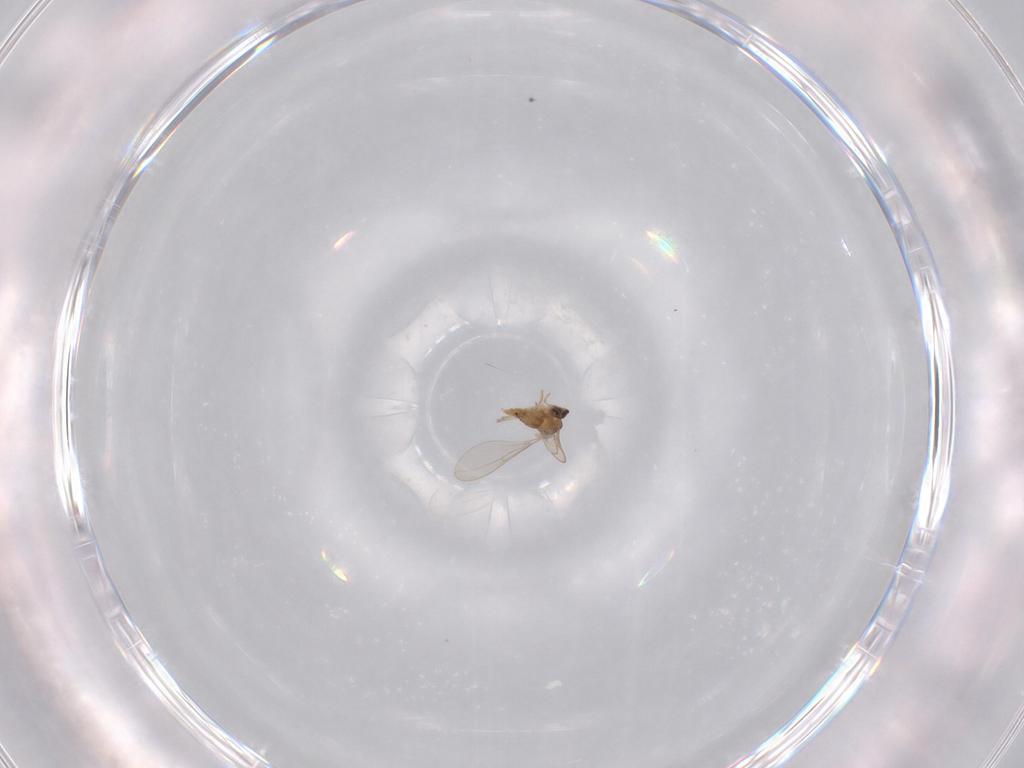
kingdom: Animalia
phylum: Arthropoda
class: Insecta
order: Diptera
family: Cecidomyiidae
